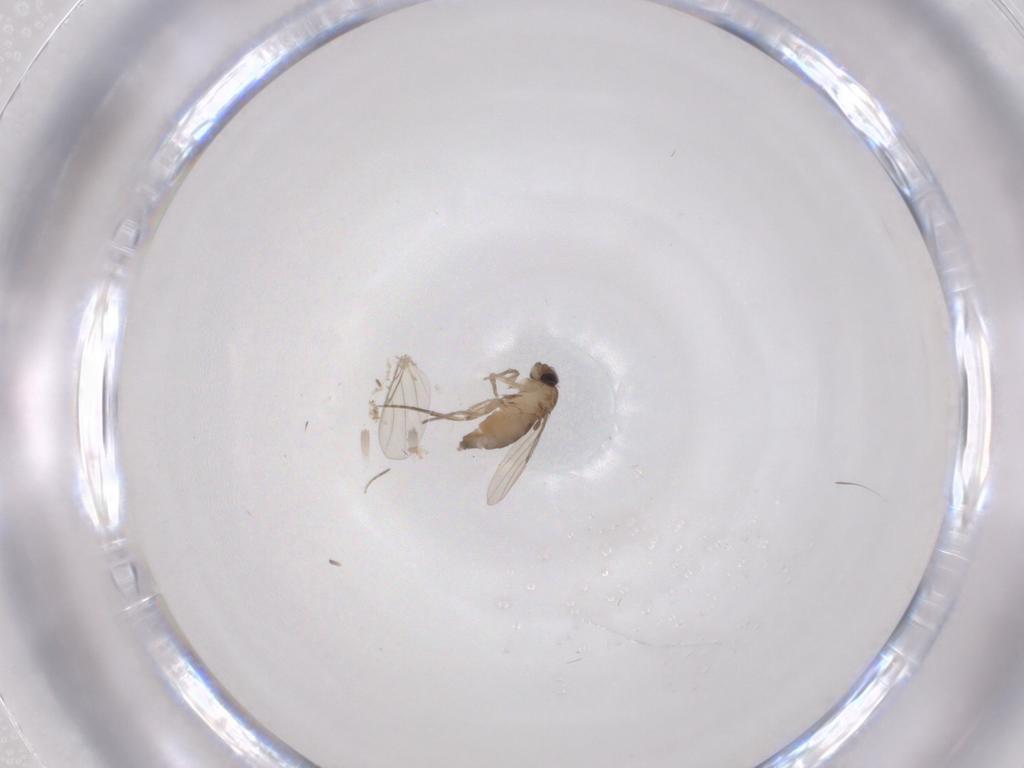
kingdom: Animalia
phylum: Arthropoda
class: Insecta
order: Diptera
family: Phoridae
